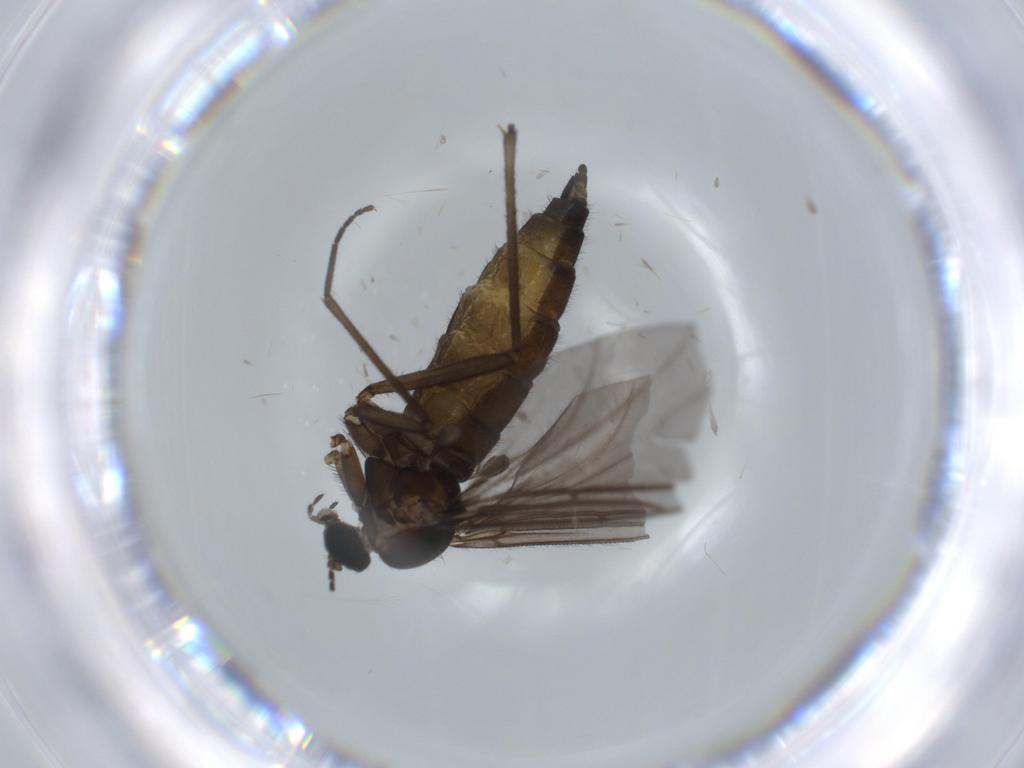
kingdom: Animalia
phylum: Arthropoda
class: Insecta
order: Diptera
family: Sciaridae
